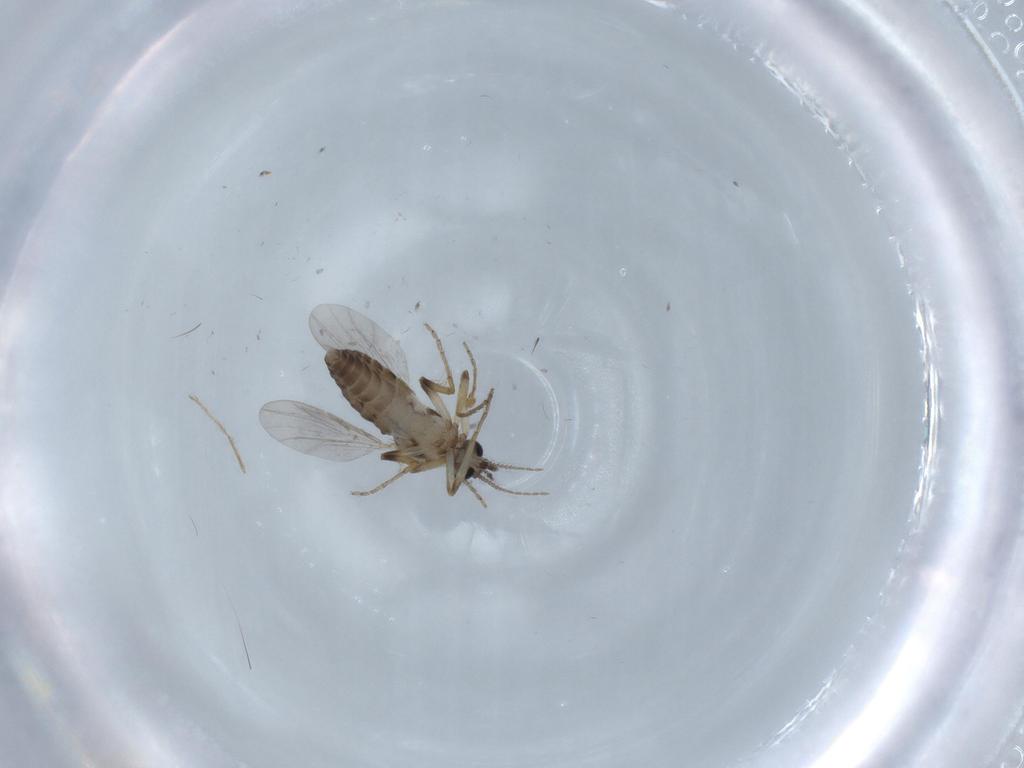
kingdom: Animalia
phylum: Arthropoda
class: Insecta
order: Diptera
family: Ceratopogonidae
